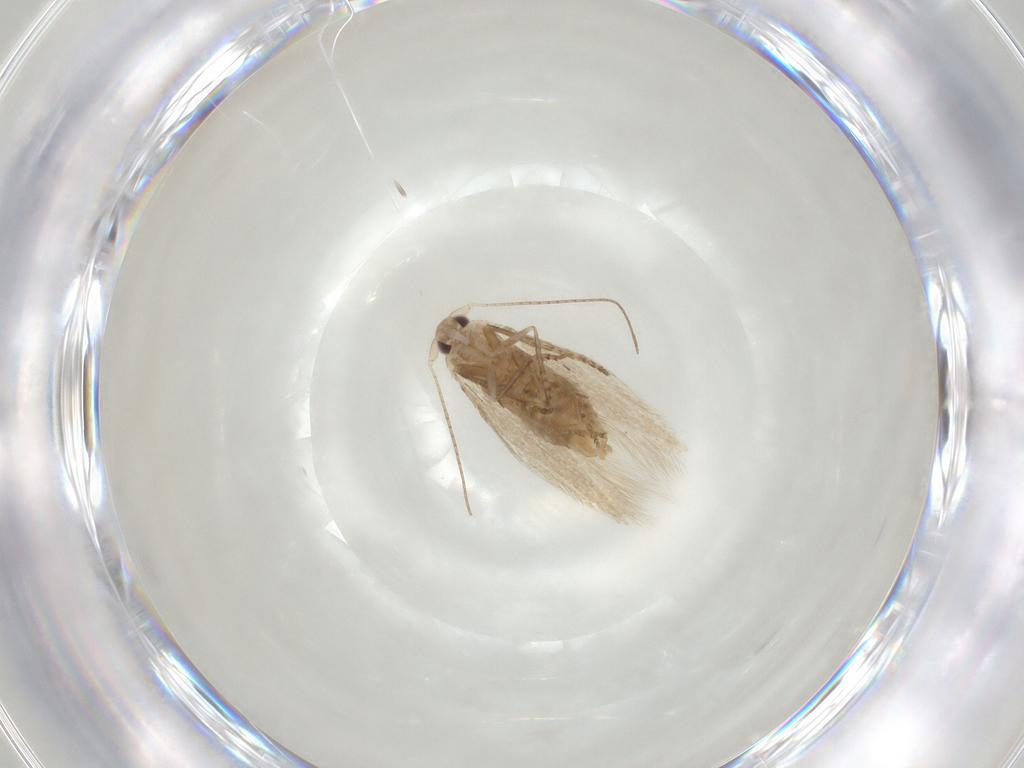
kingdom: Animalia
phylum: Arthropoda
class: Insecta
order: Lepidoptera
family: Bucculatricidae
